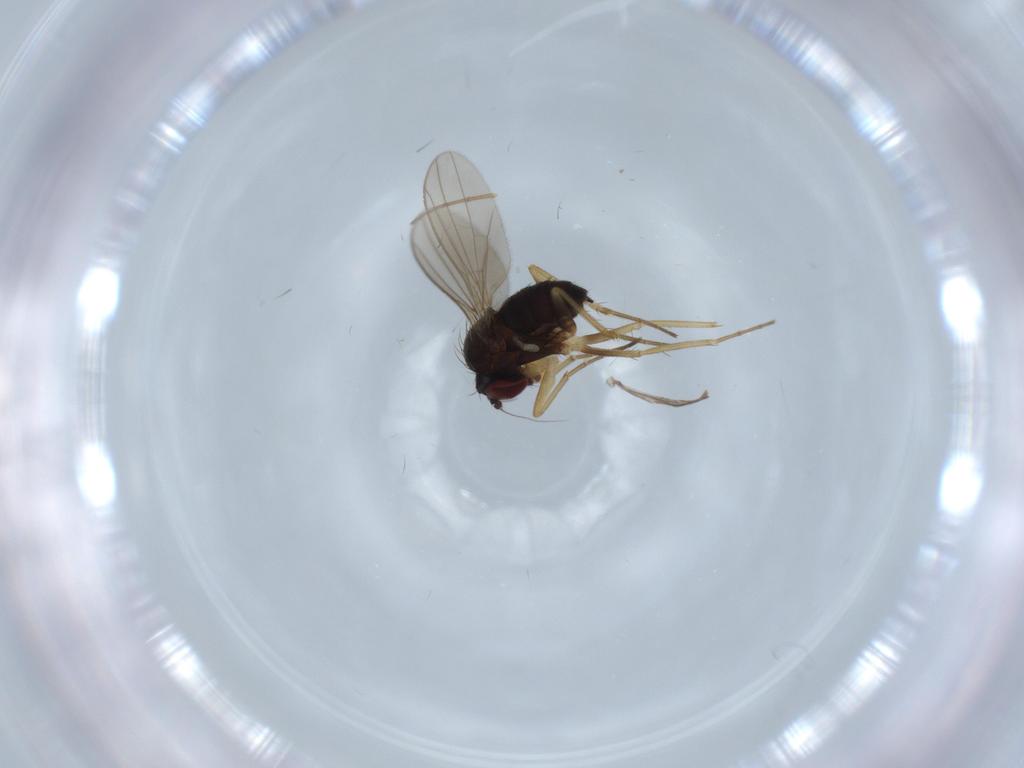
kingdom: Animalia
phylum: Arthropoda
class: Insecta
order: Diptera
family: Dolichopodidae
